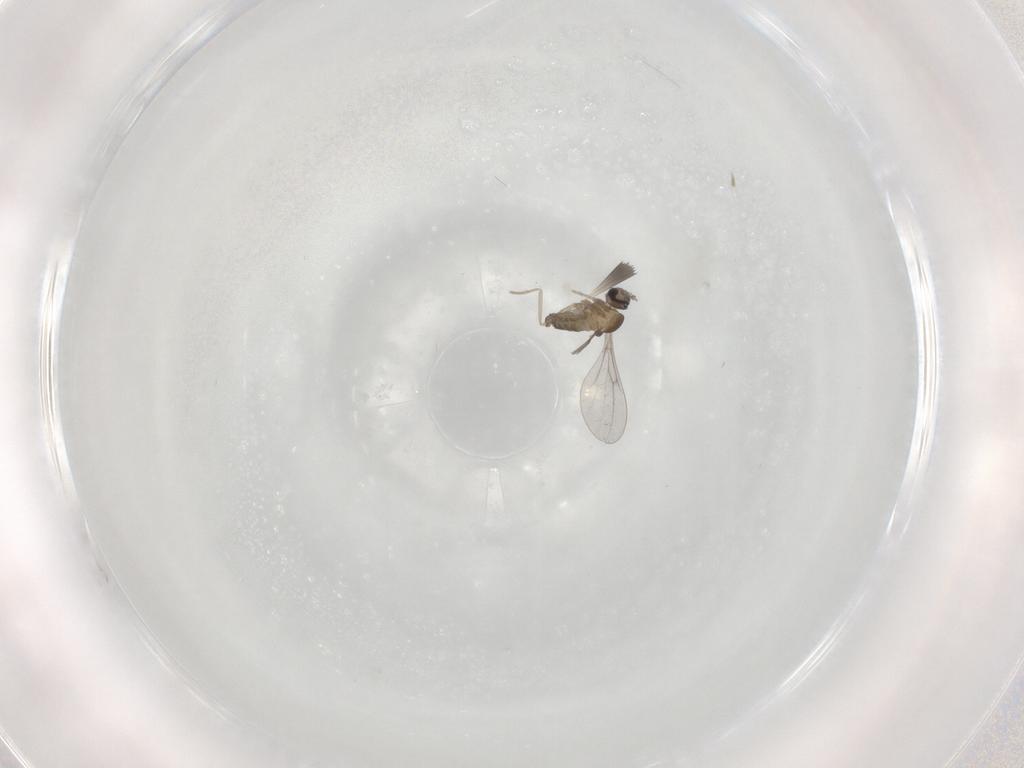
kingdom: Animalia
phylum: Arthropoda
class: Insecta
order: Diptera
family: Cecidomyiidae
